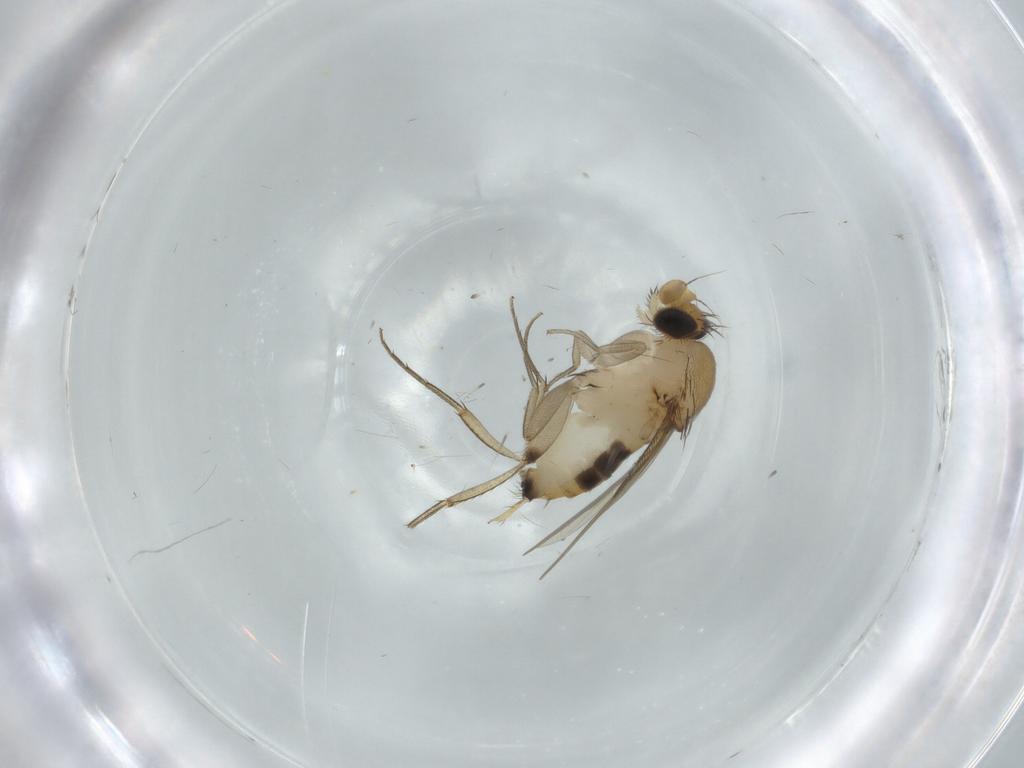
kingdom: Animalia
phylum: Arthropoda
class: Insecta
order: Diptera
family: Phoridae
